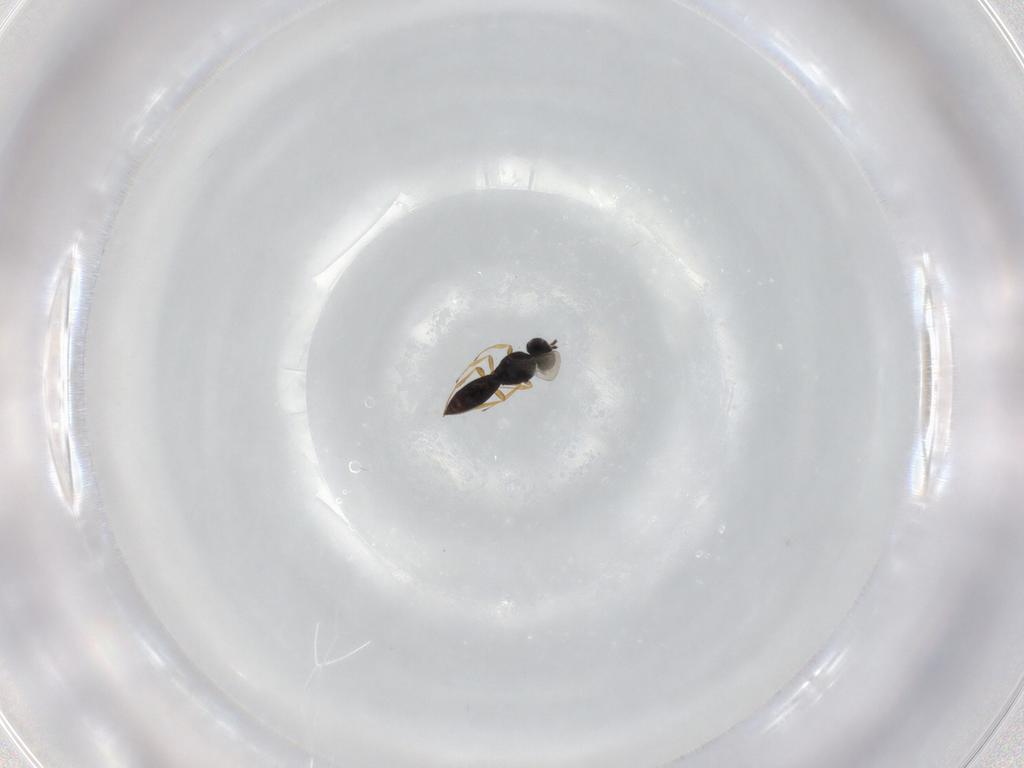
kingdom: Animalia
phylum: Arthropoda
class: Insecta
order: Hymenoptera
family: Scelionidae
